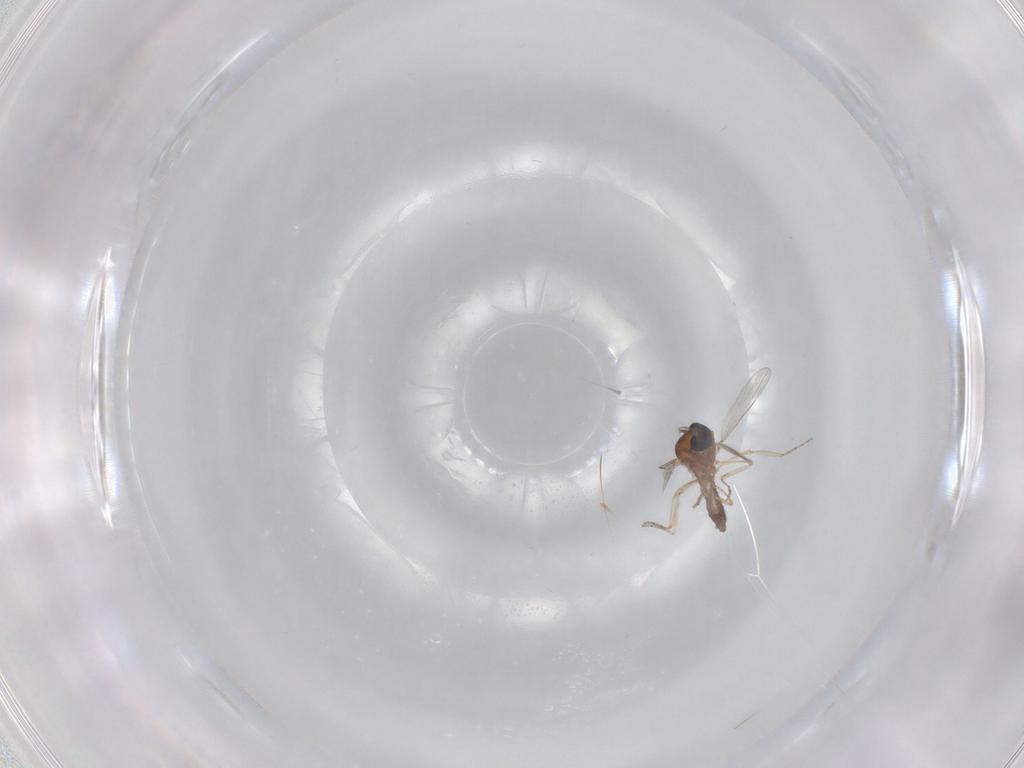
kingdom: Animalia
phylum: Arthropoda
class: Insecta
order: Diptera
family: Ceratopogonidae
